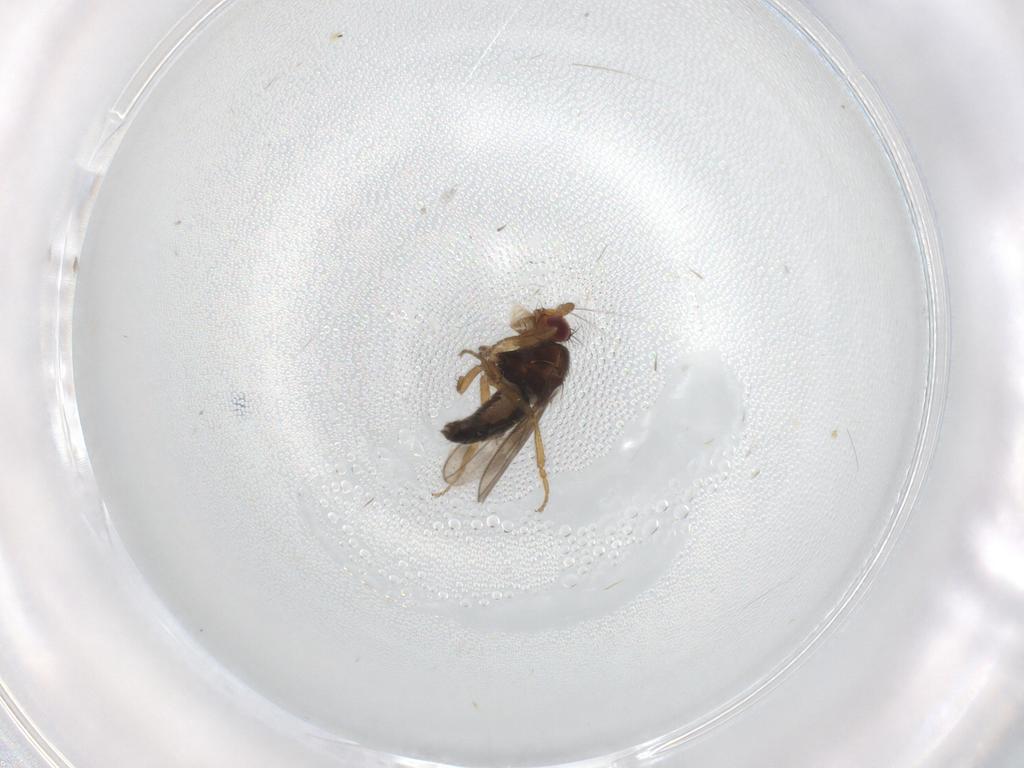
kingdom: Animalia
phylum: Arthropoda
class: Insecta
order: Diptera
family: Sphaeroceridae
